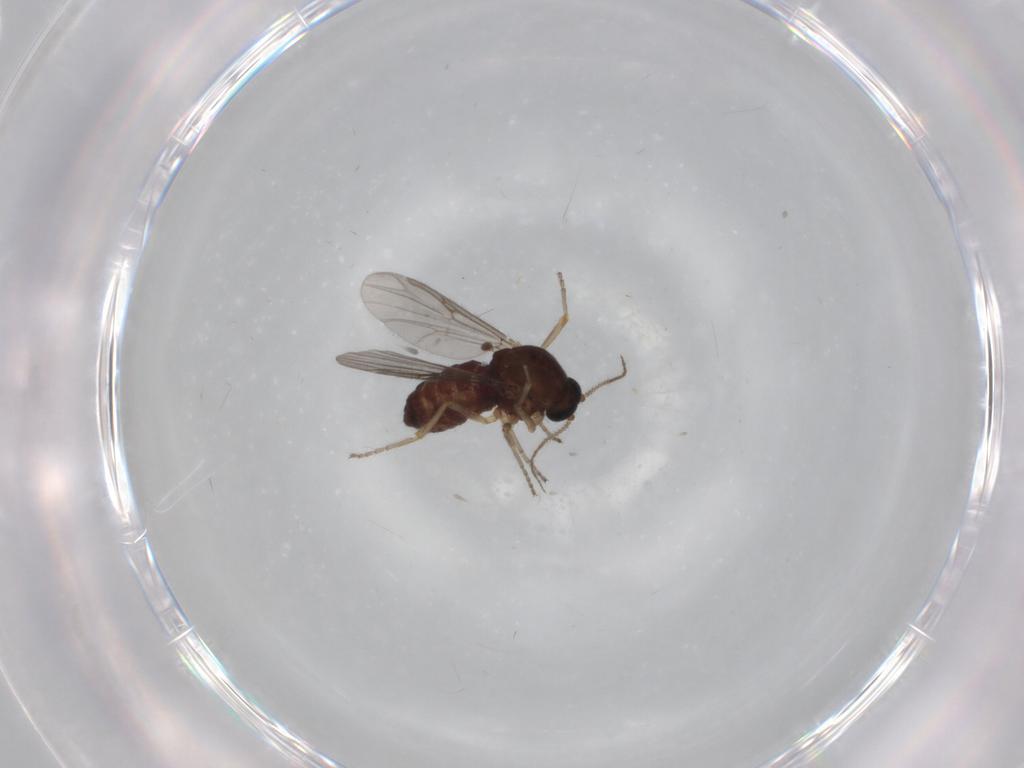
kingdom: Animalia
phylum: Arthropoda
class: Insecta
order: Diptera
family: Ceratopogonidae
